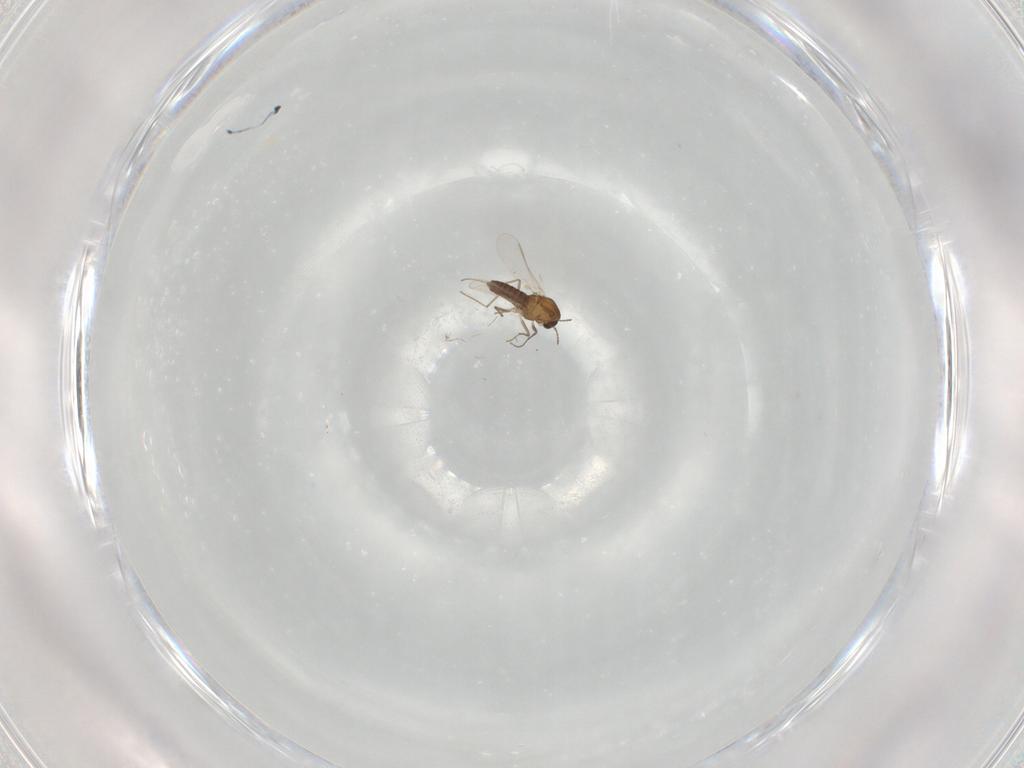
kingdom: Animalia
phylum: Arthropoda
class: Insecta
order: Diptera
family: Chironomidae
